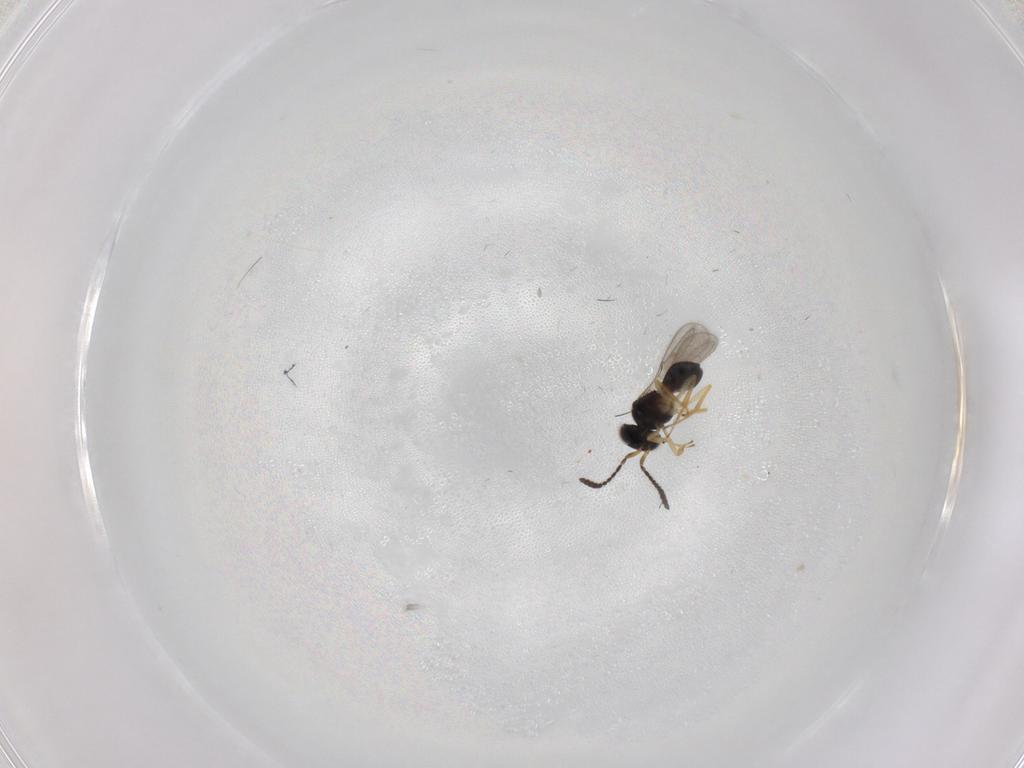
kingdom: Animalia
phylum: Arthropoda
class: Insecta
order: Hymenoptera
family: Scelionidae
